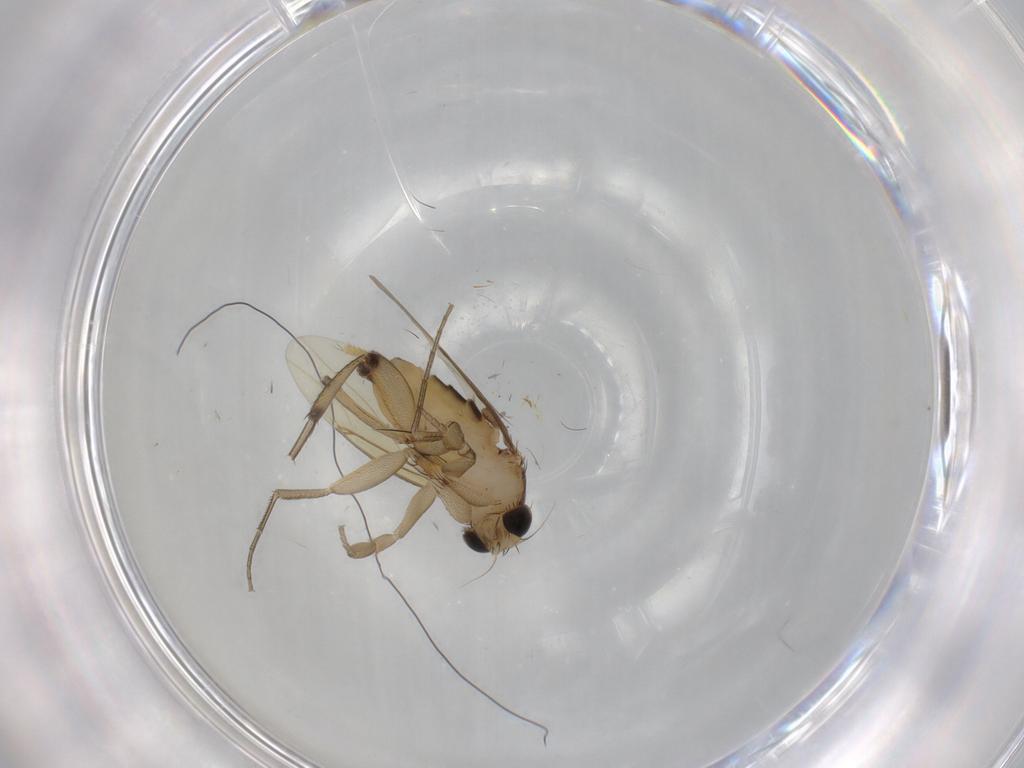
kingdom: Animalia
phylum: Arthropoda
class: Insecta
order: Diptera
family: Phoridae
